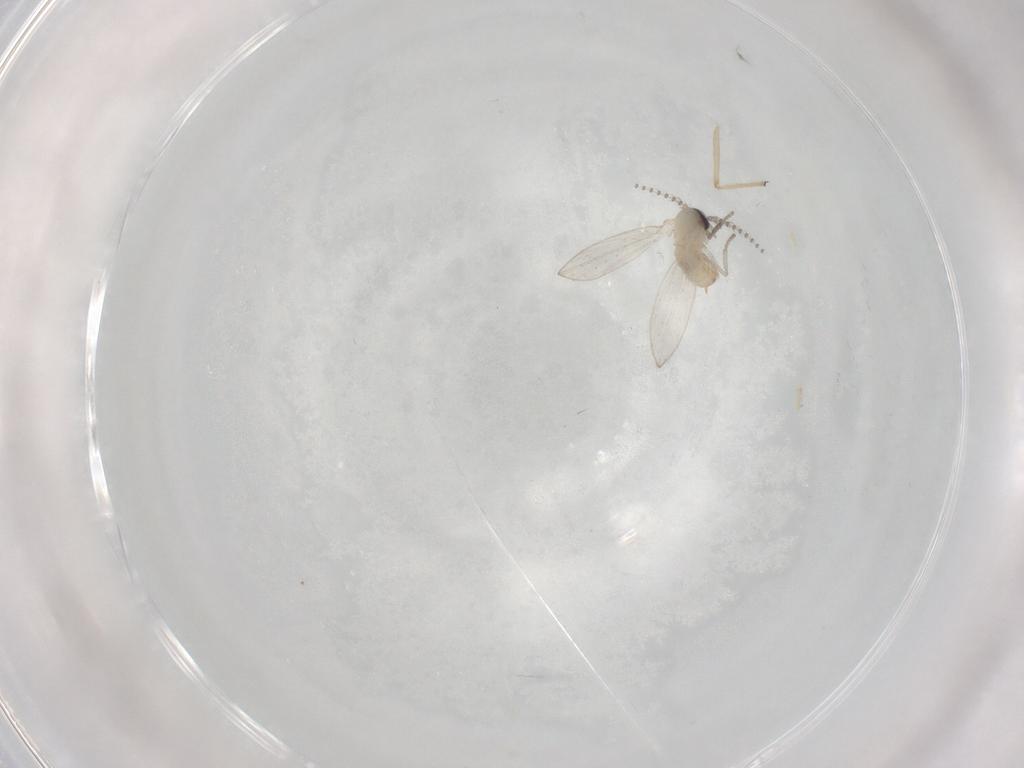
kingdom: Animalia
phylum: Arthropoda
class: Insecta
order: Diptera
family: Chironomidae
